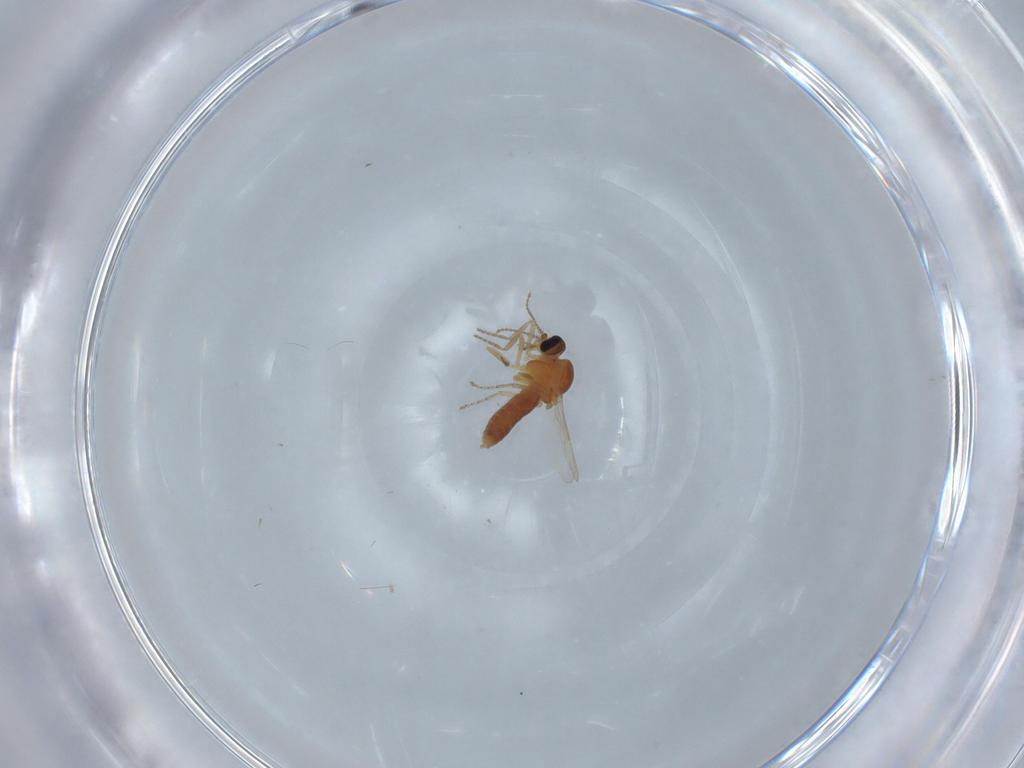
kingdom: Animalia
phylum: Arthropoda
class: Insecta
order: Diptera
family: Ceratopogonidae
